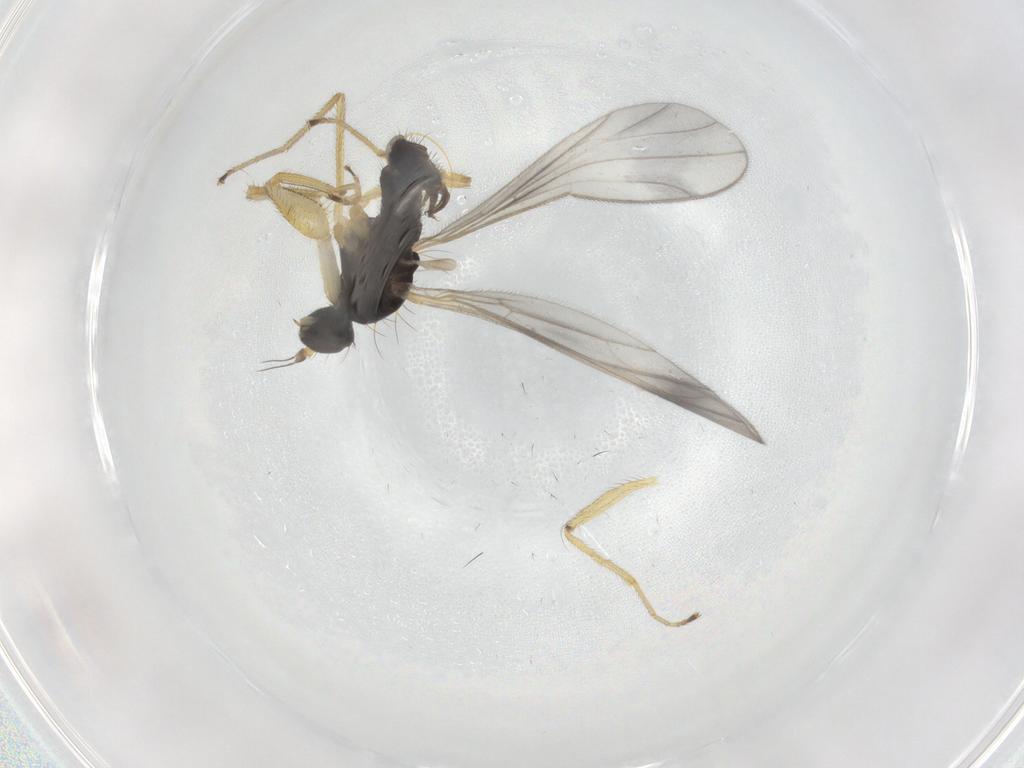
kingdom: Animalia
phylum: Arthropoda
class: Insecta
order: Diptera
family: Empididae
